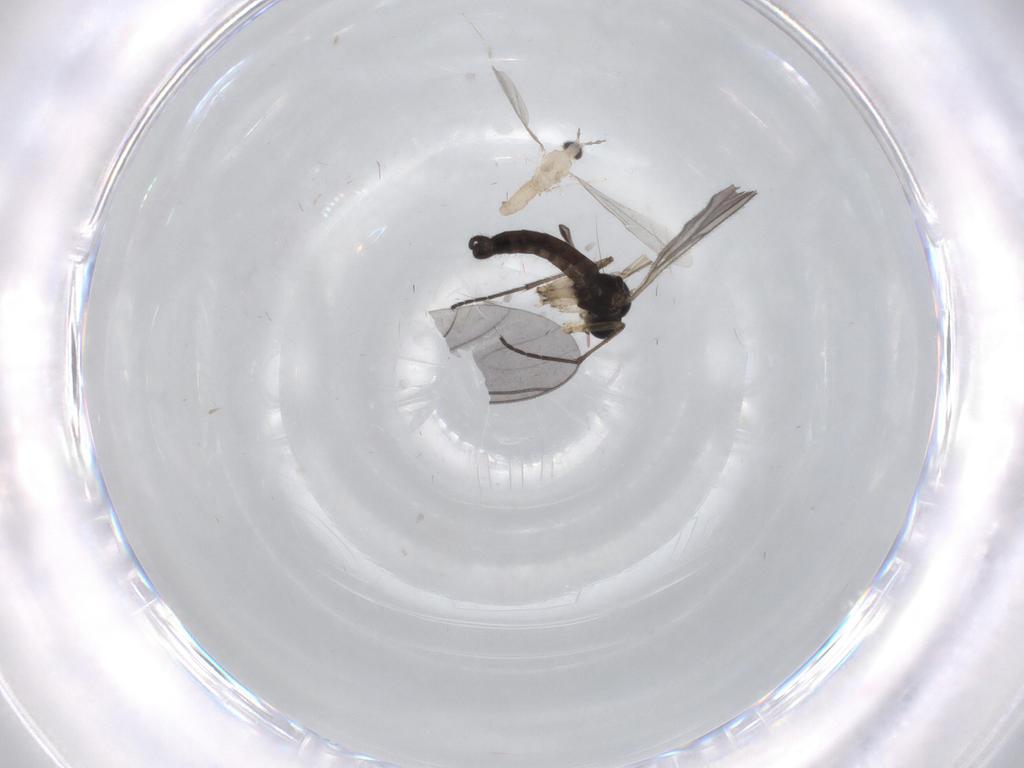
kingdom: Animalia
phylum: Arthropoda
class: Insecta
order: Diptera
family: Sciaridae
